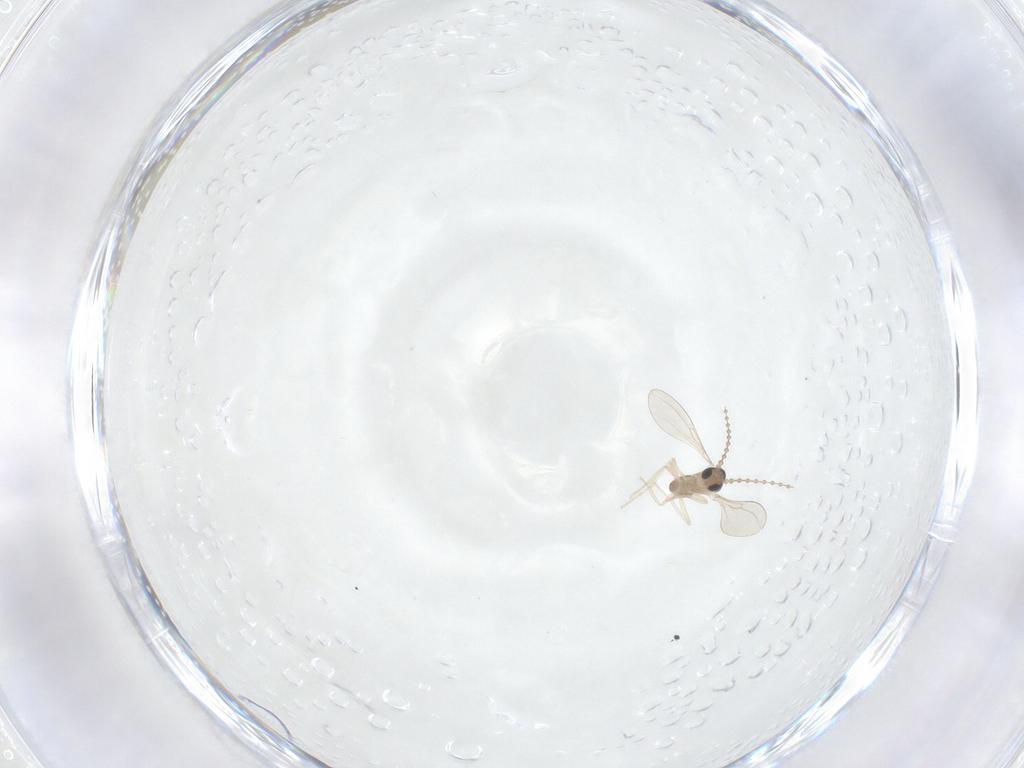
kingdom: Animalia
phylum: Arthropoda
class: Insecta
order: Diptera
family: Cecidomyiidae
